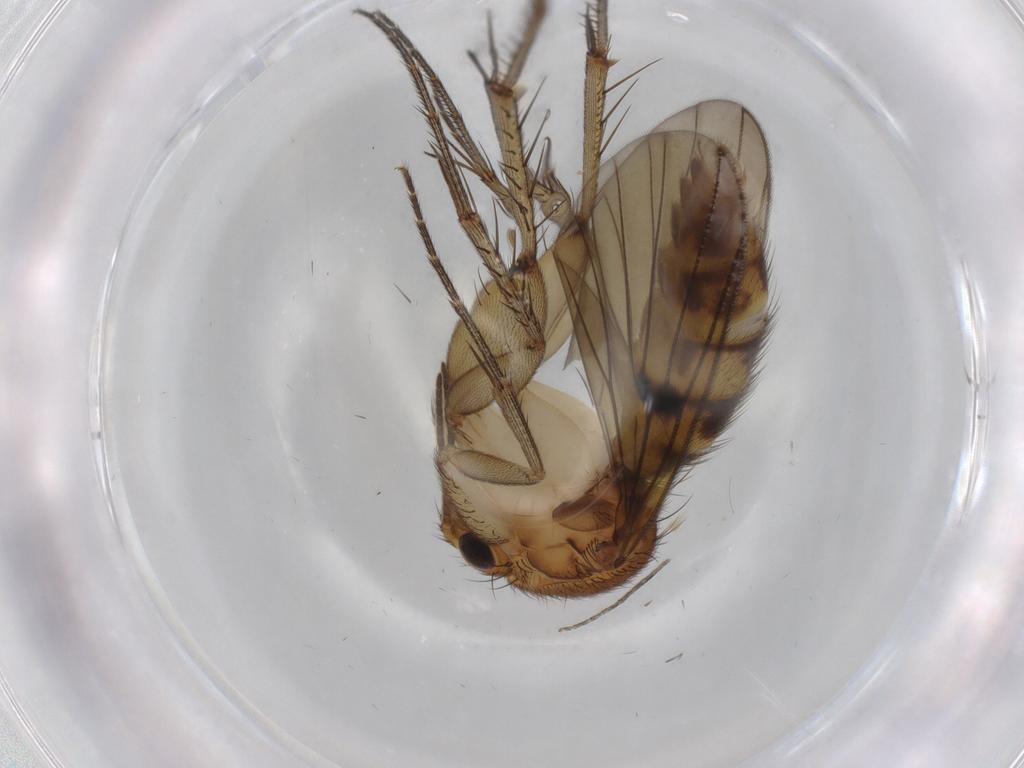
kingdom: Animalia
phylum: Arthropoda
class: Insecta
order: Diptera
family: Mycetophilidae
